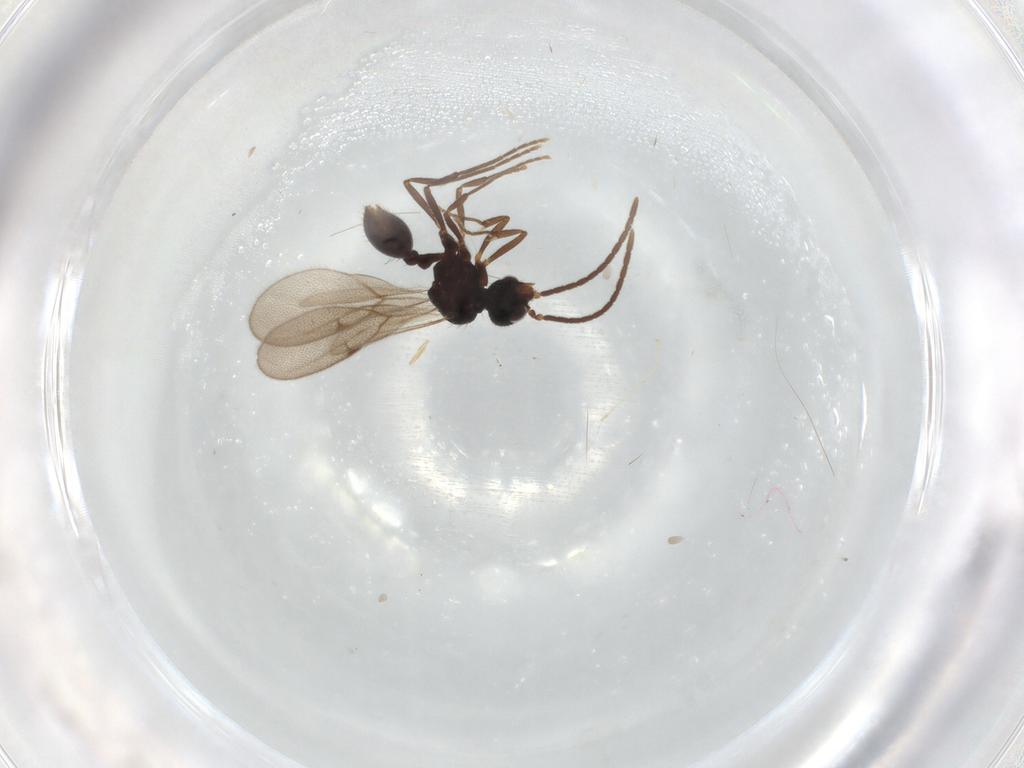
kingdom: Animalia
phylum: Arthropoda
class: Insecta
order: Hymenoptera
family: Formicidae
